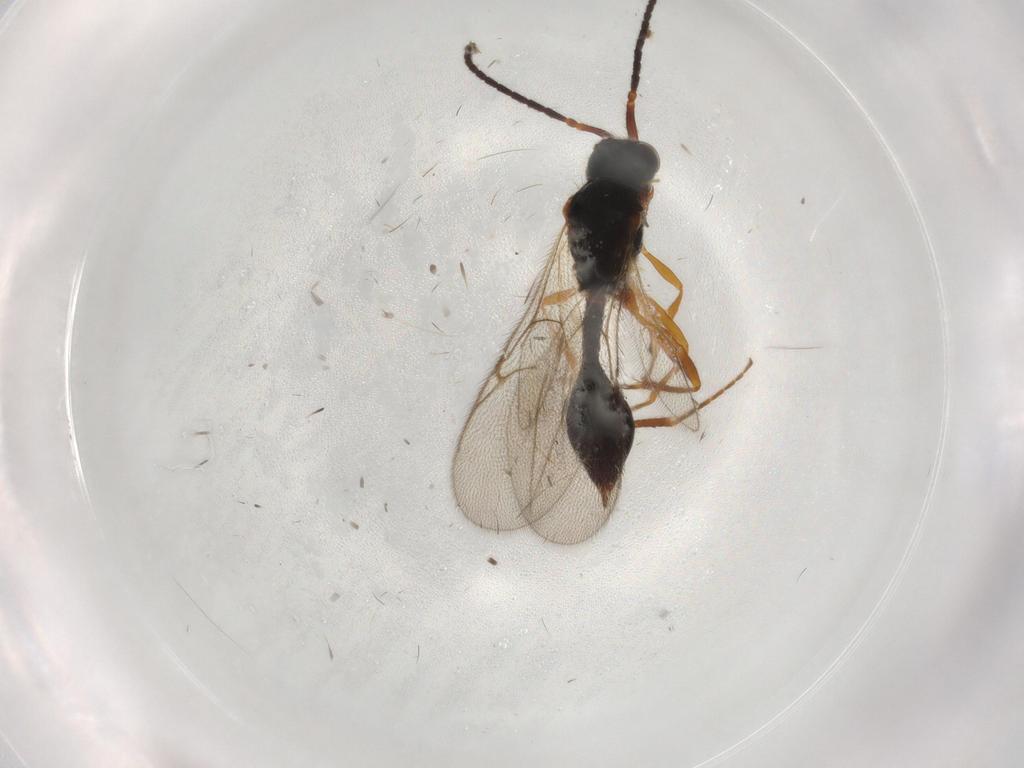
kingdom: Animalia
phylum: Arthropoda
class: Insecta
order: Hymenoptera
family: Diapriidae
